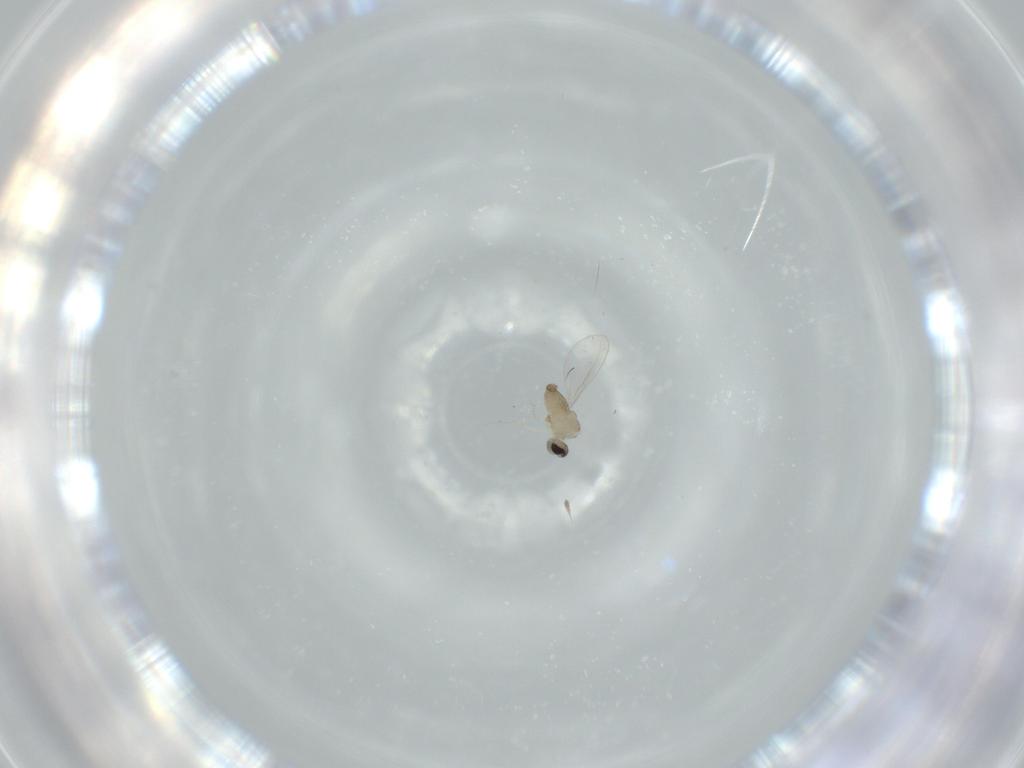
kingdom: Animalia
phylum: Arthropoda
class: Insecta
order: Diptera
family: Cecidomyiidae
